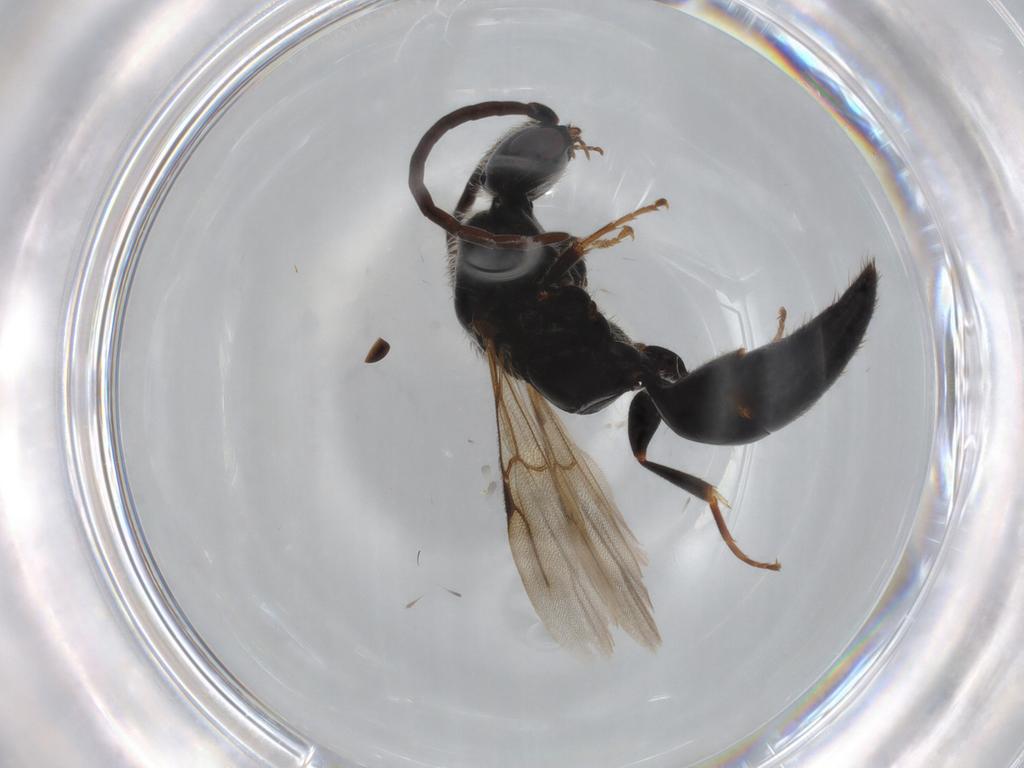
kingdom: Animalia
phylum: Arthropoda
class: Insecta
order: Hymenoptera
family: Bethylidae
